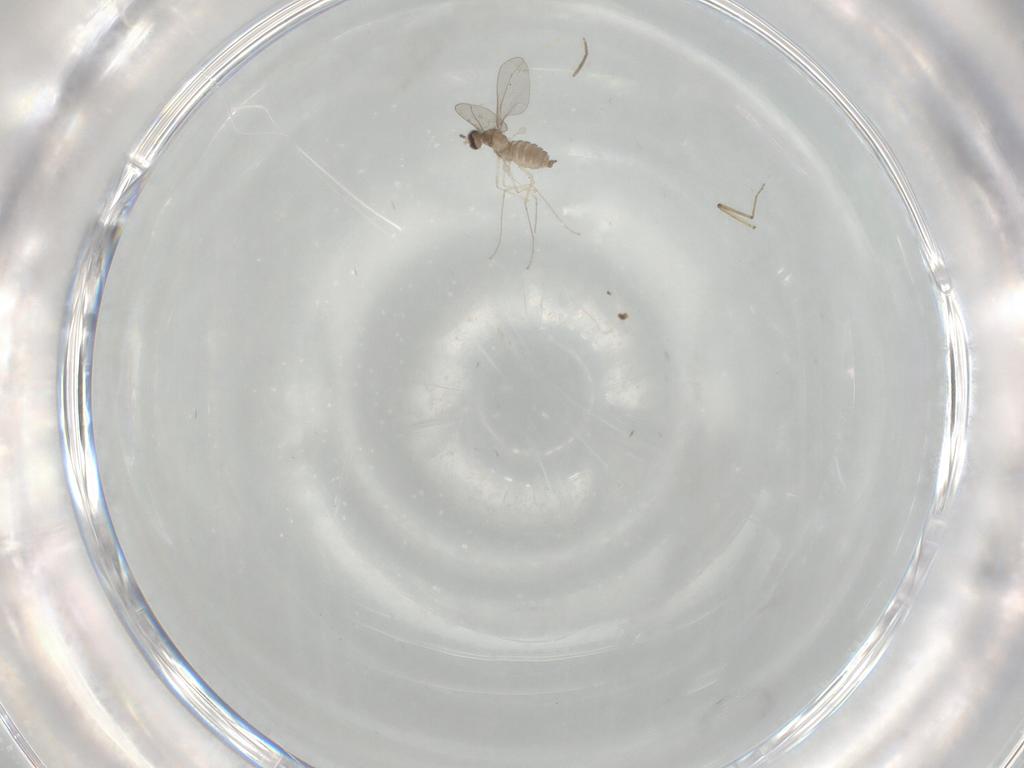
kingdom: Animalia
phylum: Arthropoda
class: Insecta
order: Diptera
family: Cecidomyiidae
